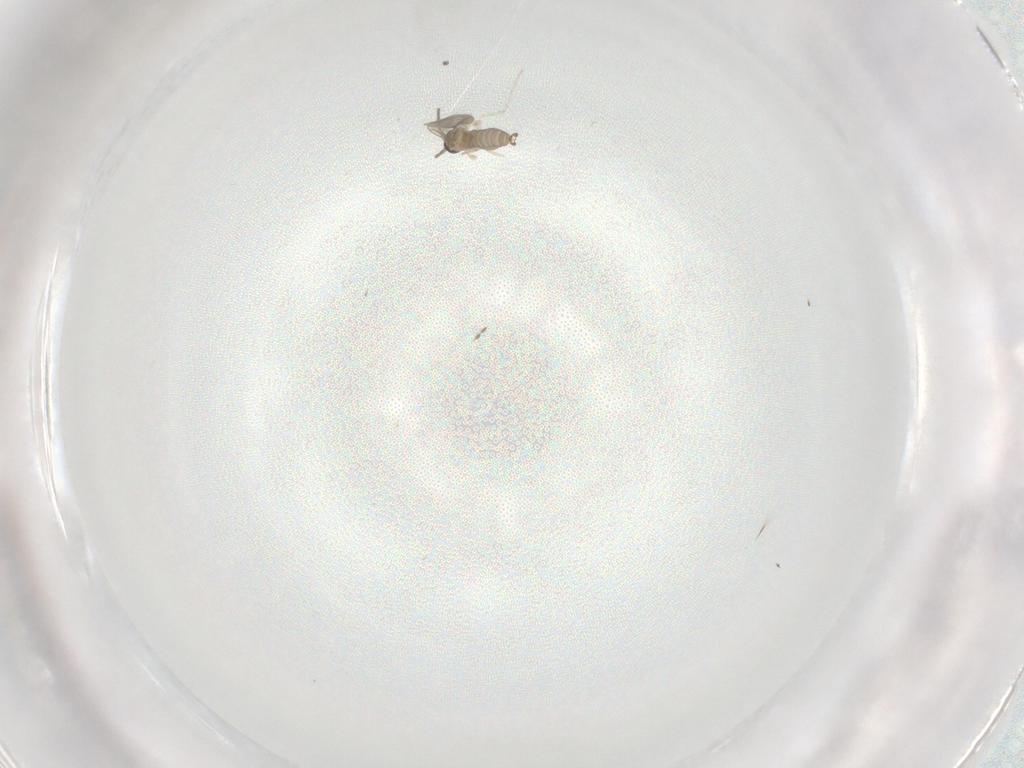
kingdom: Animalia
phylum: Arthropoda
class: Insecta
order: Diptera
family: Cecidomyiidae
